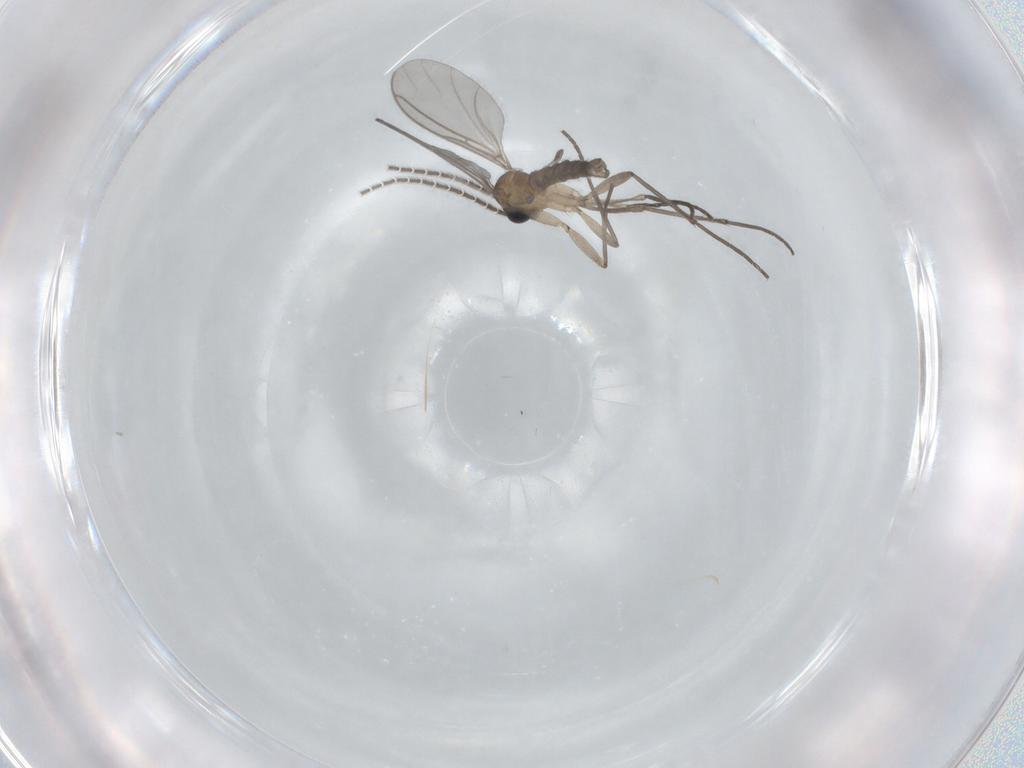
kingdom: Animalia
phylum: Arthropoda
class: Insecta
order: Diptera
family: Sciaridae
